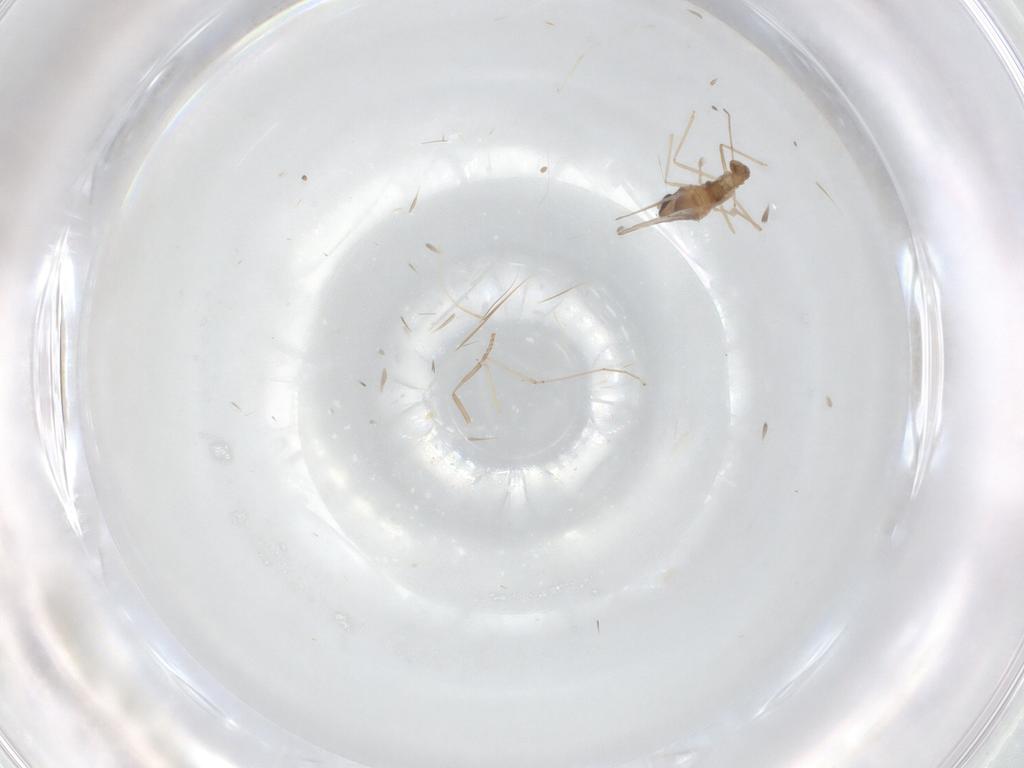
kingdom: Animalia
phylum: Arthropoda
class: Insecta
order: Diptera
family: Cecidomyiidae
